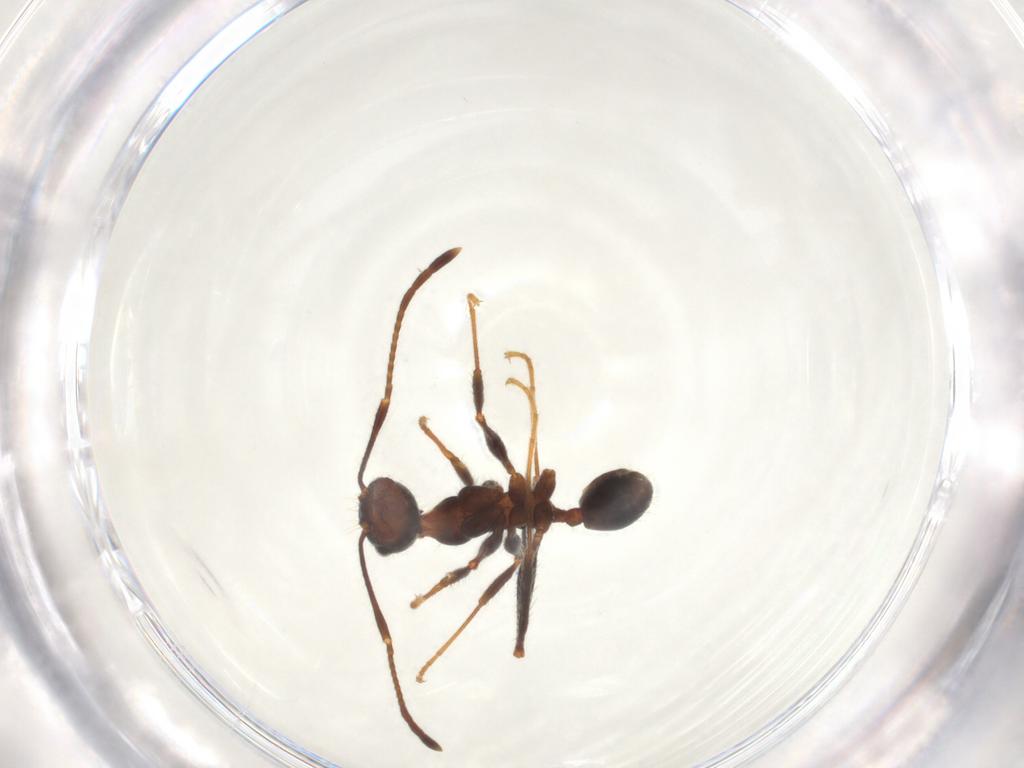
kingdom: Animalia
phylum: Arthropoda
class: Insecta
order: Hymenoptera
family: Formicidae
